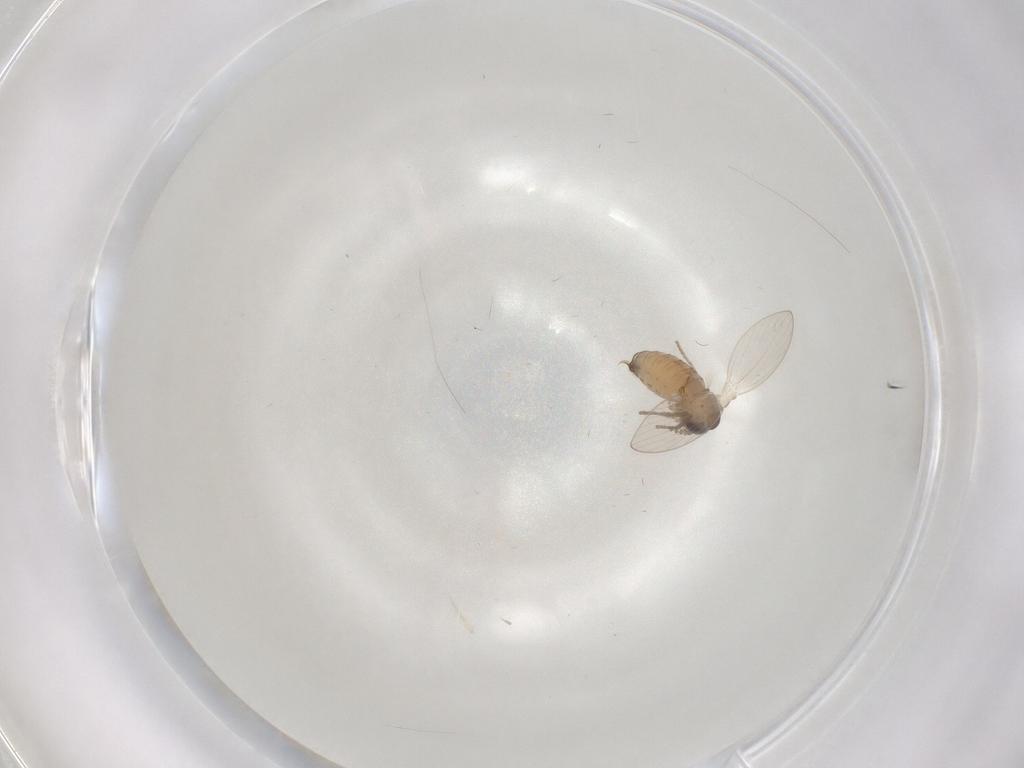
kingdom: Animalia
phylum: Arthropoda
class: Insecta
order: Diptera
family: Psychodidae
